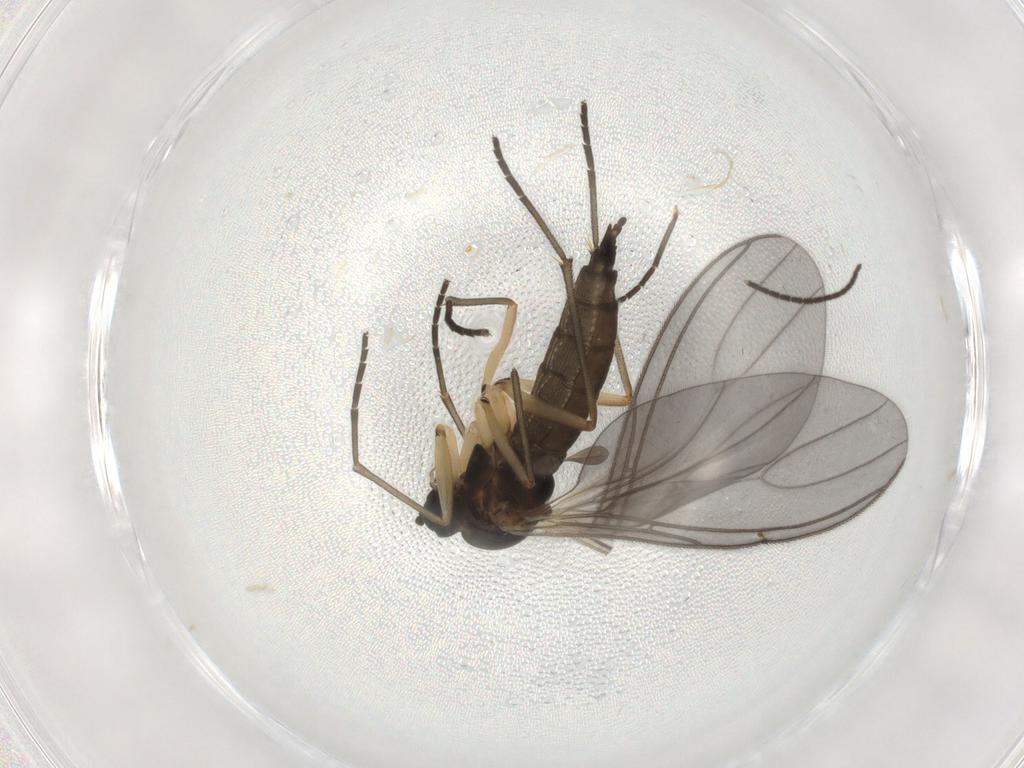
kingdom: Animalia
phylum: Arthropoda
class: Insecta
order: Diptera
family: Sciaridae
